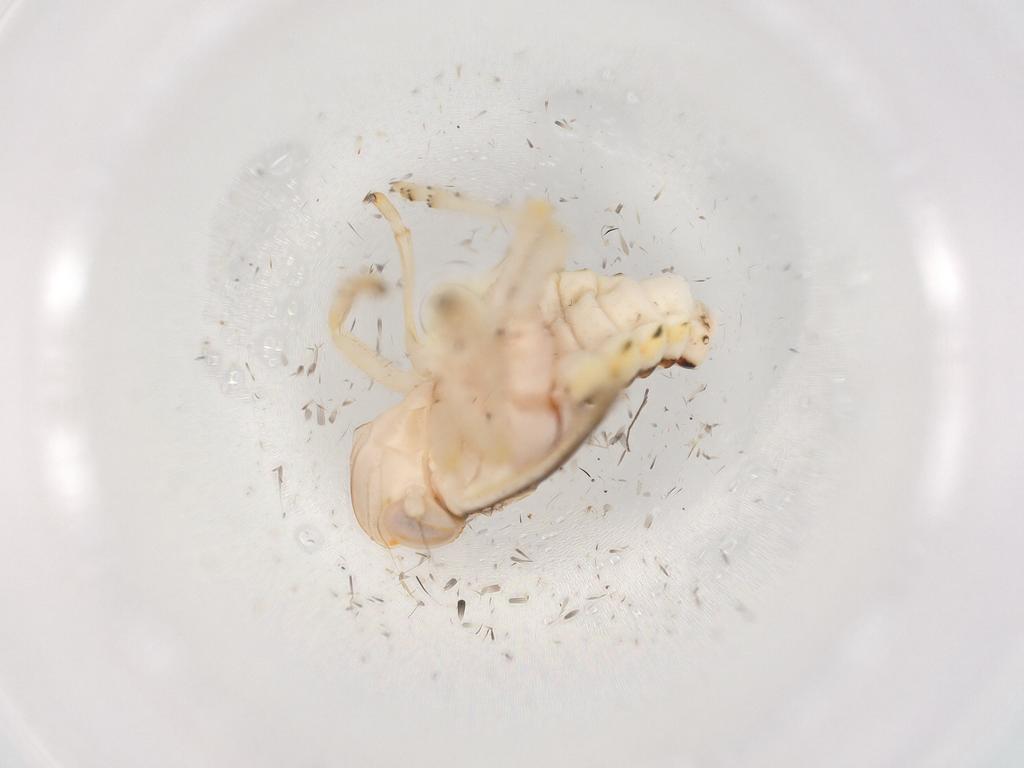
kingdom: Animalia
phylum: Arthropoda
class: Insecta
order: Hemiptera
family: Nogodinidae
